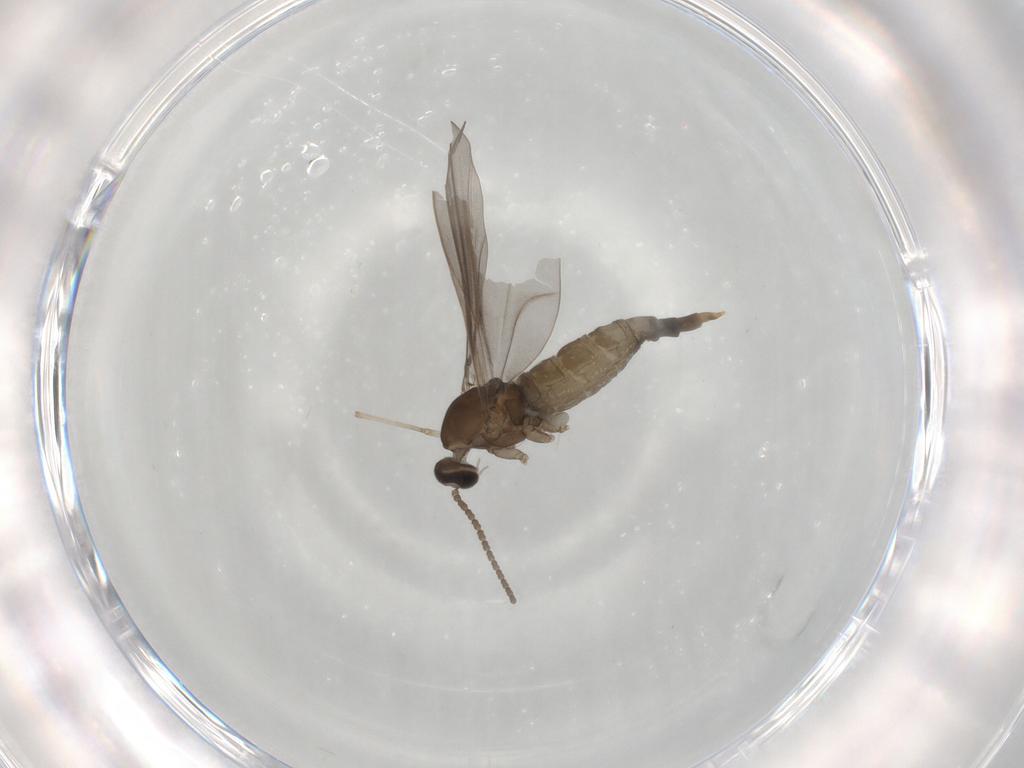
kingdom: Animalia
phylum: Arthropoda
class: Insecta
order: Diptera
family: Cecidomyiidae
